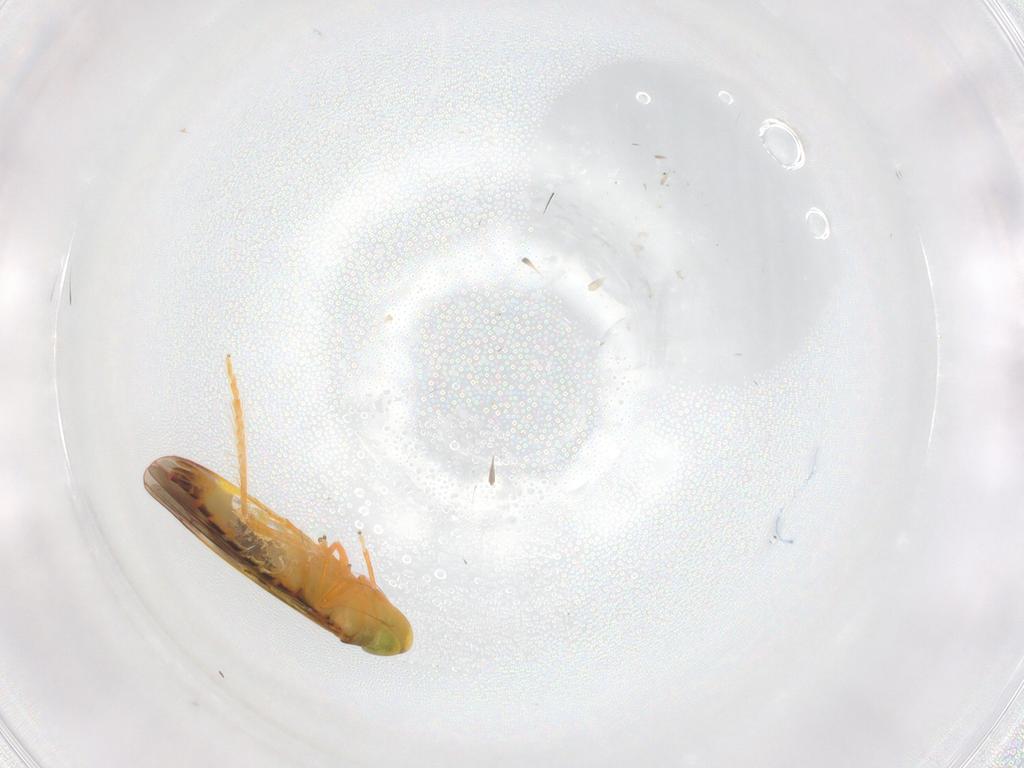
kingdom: Animalia
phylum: Arthropoda
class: Insecta
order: Hemiptera
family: Cicadellidae
